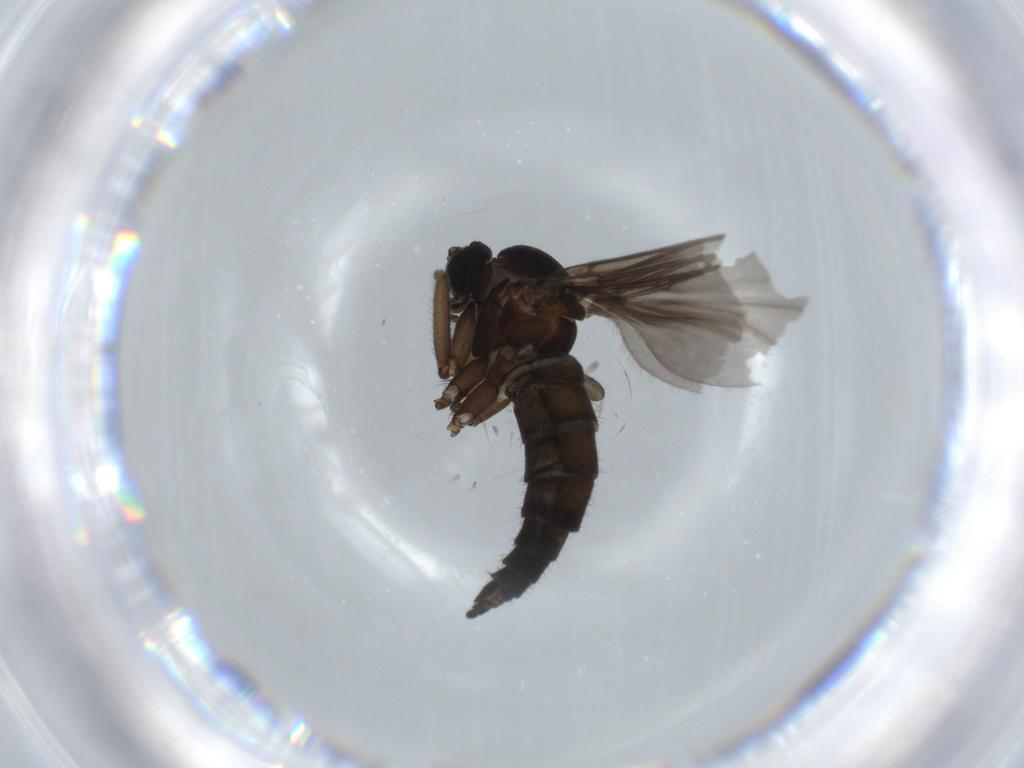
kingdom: Animalia
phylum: Arthropoda
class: Insecta
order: Diptera
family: Sciaridae
